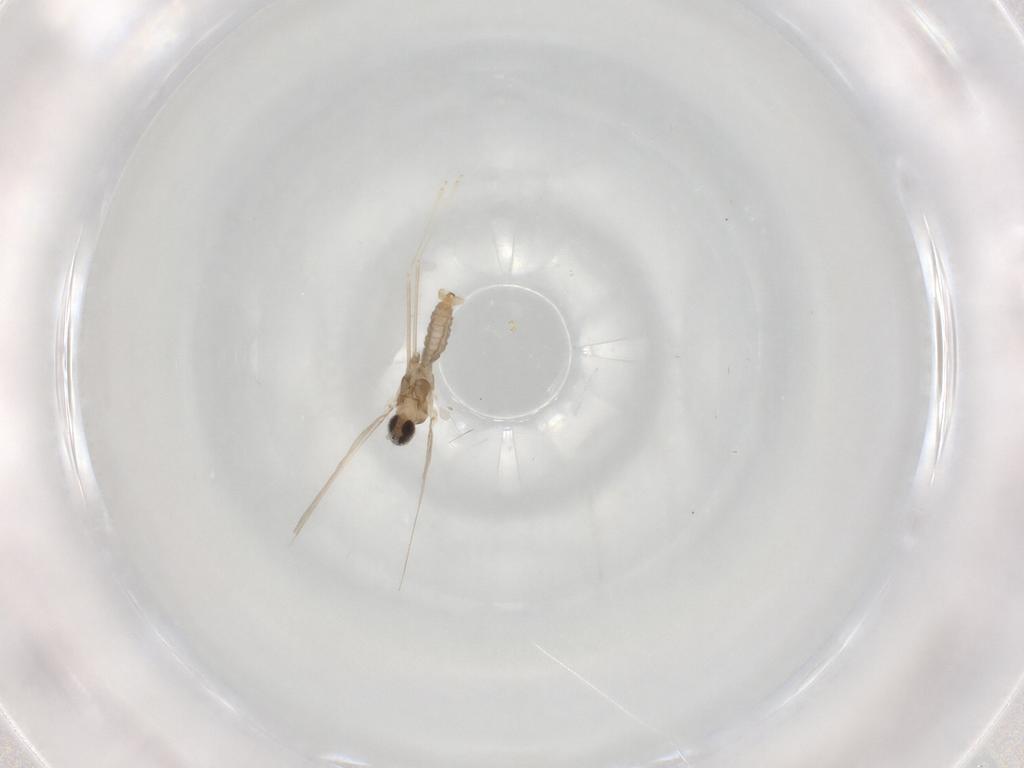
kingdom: Animalia
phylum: Arthropoda
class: Insecta
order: Diptera
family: Cecidomyiidae
